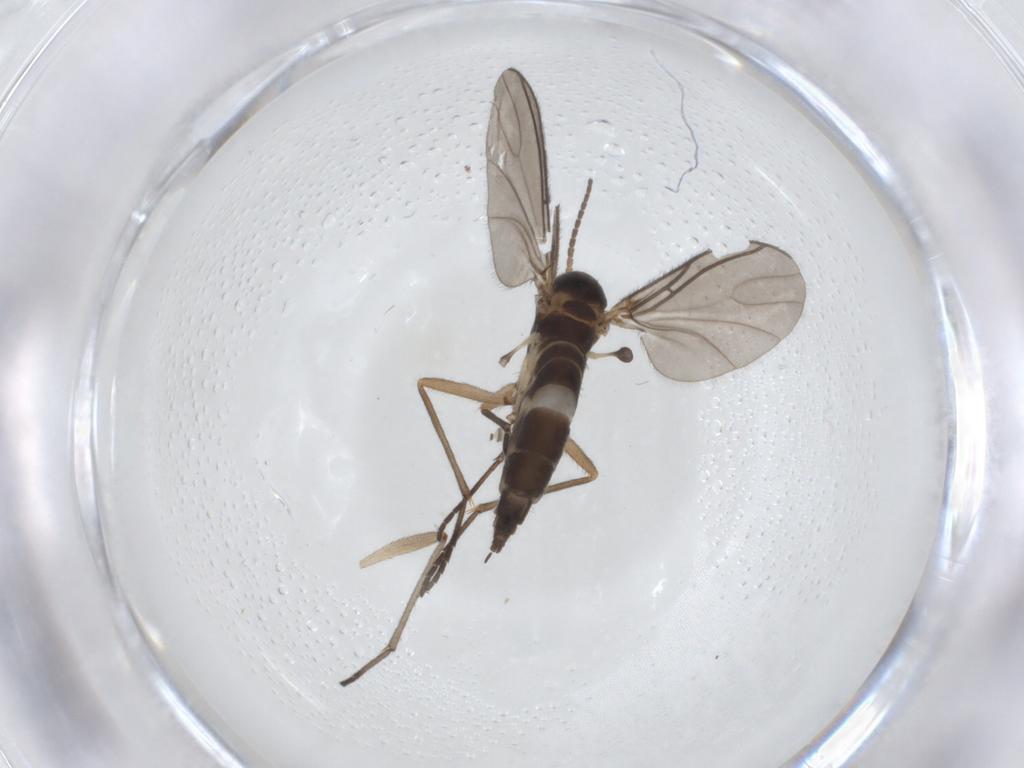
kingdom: Animalia
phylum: Arthropoda
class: Insecta
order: Diptera
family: Sciaridae
